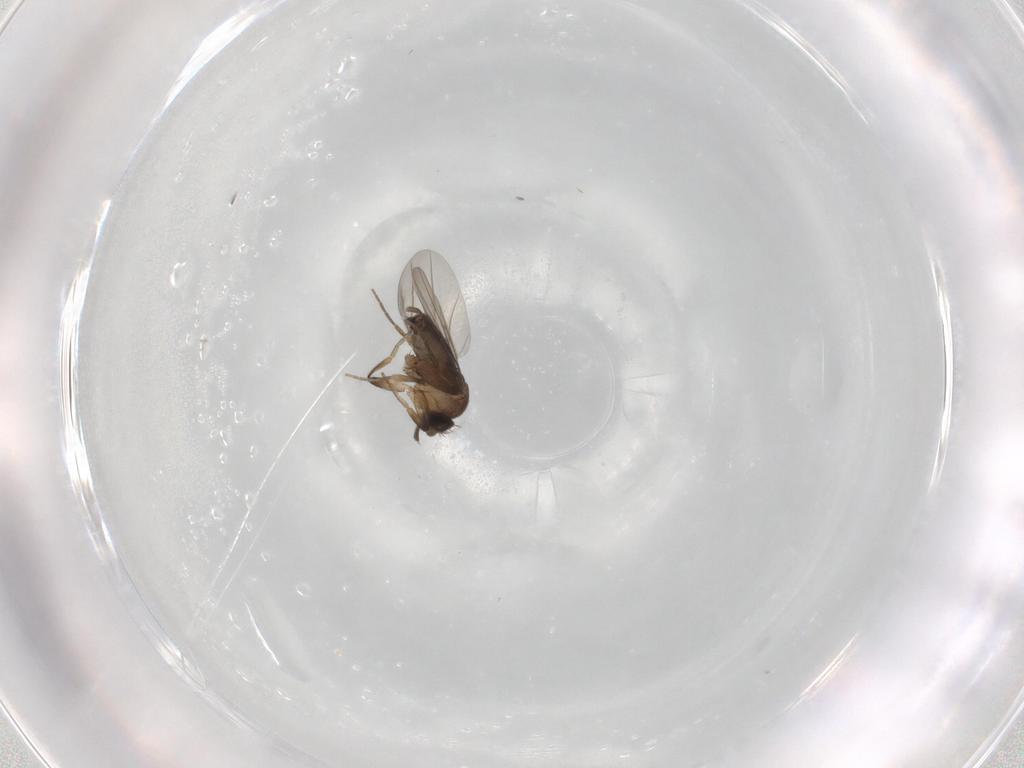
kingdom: Animalia
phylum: Arthropoda
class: Insecta
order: Diptera
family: Phoridae
